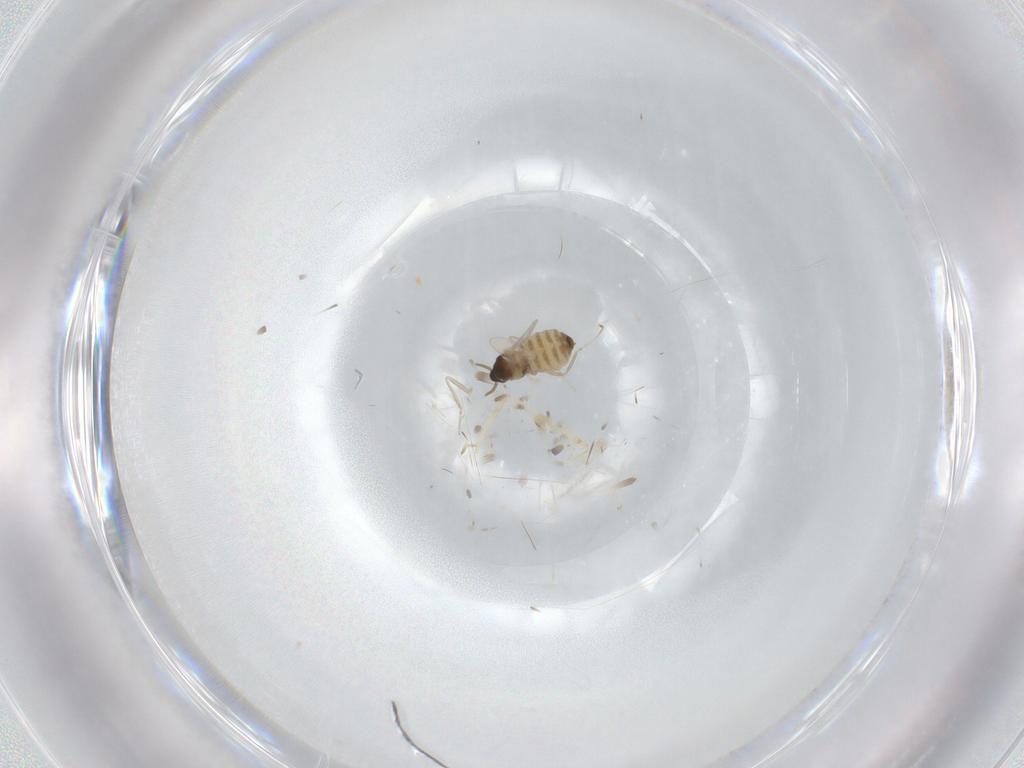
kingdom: Animalia
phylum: Arthropoda
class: Insecta
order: Diptera
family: Cecidomyiidae
